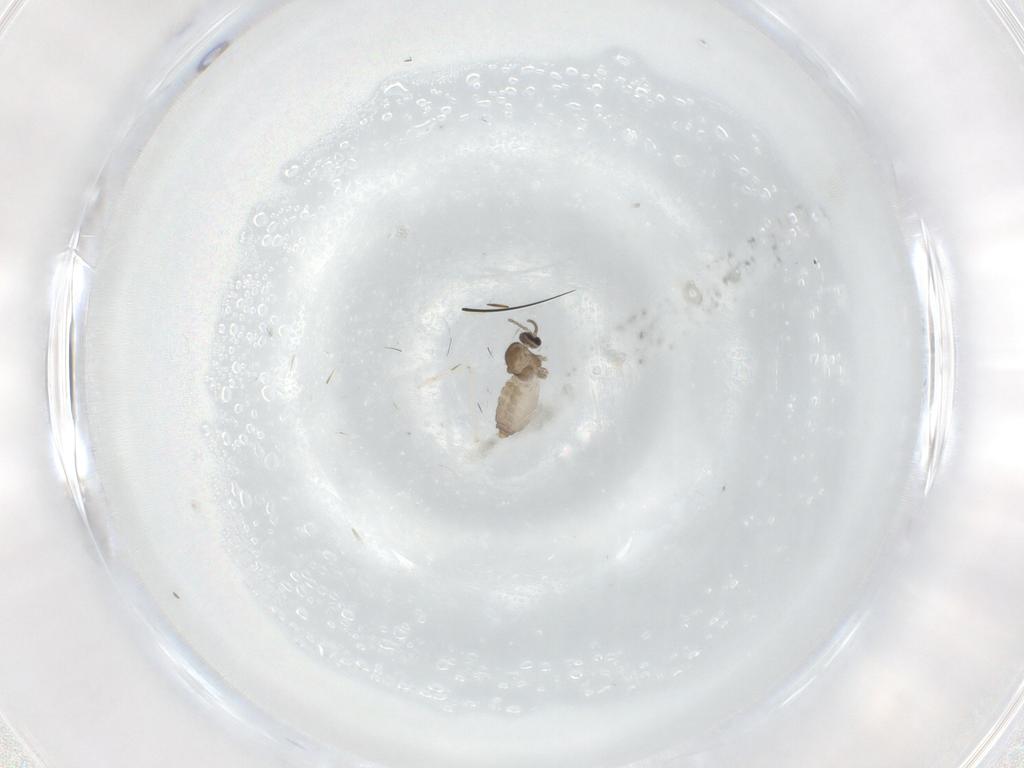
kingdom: Animalia
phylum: Arthropoda
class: Insecta
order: Diptera
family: Cecidomyiidae
